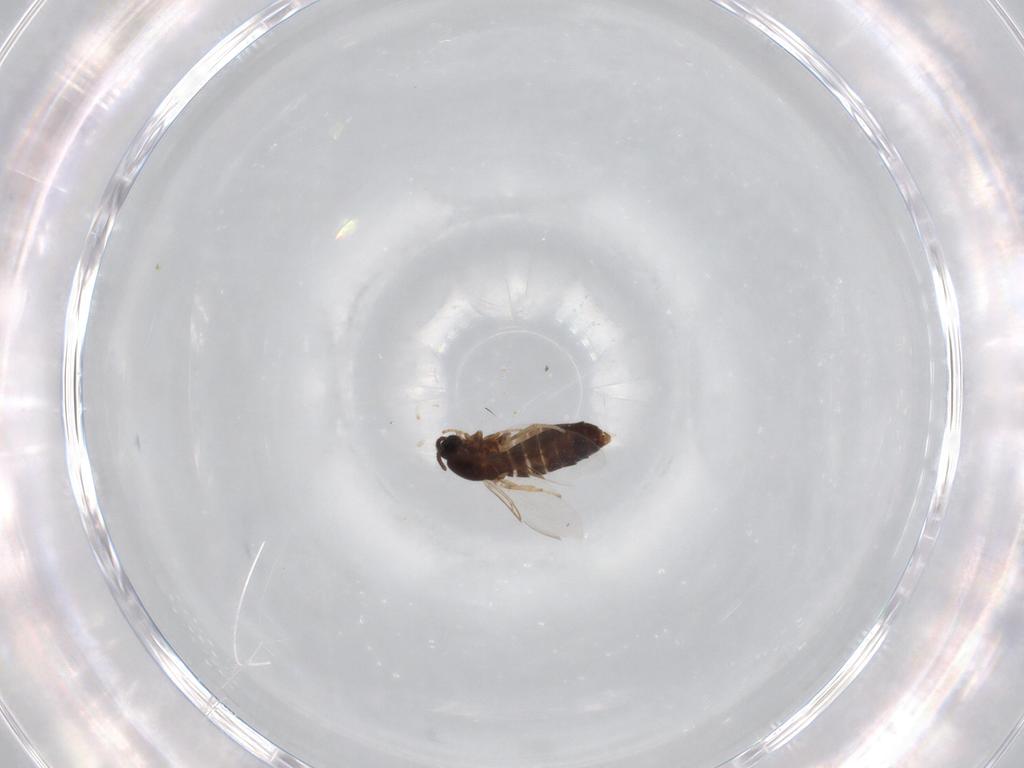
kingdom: Animalia
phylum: Arthropoda
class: Insecta
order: Diptera
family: Scatopsidae
